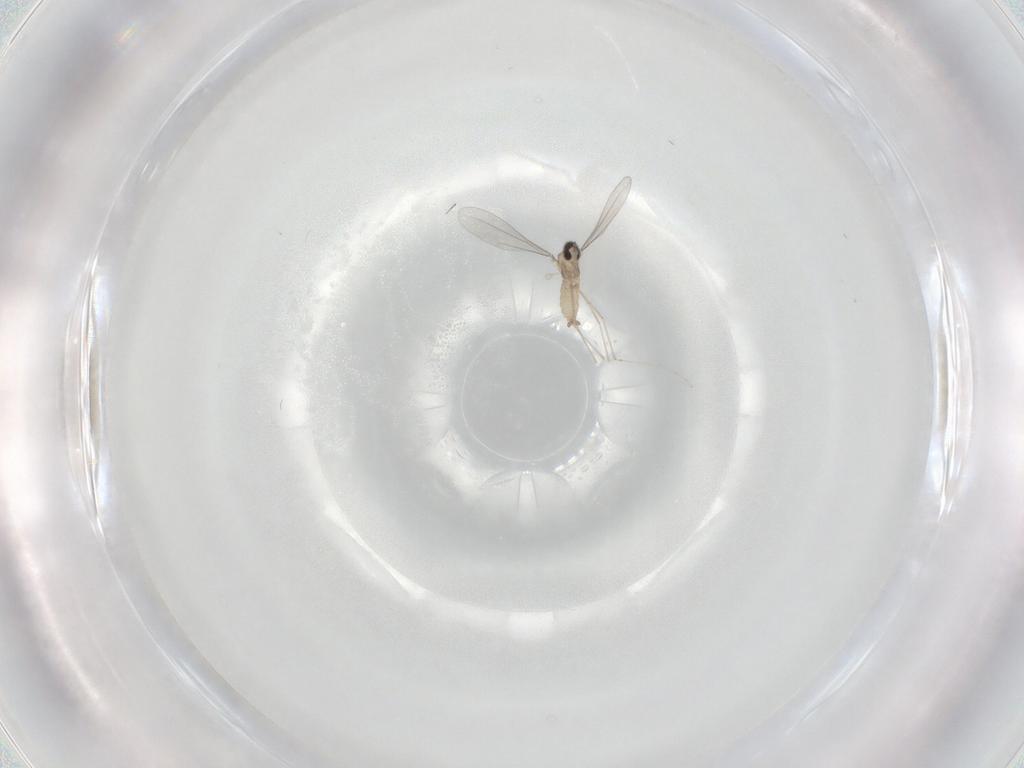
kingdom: Animalia
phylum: Arthropoda
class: Insecta
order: Diptera
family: Cecidomyiidae
